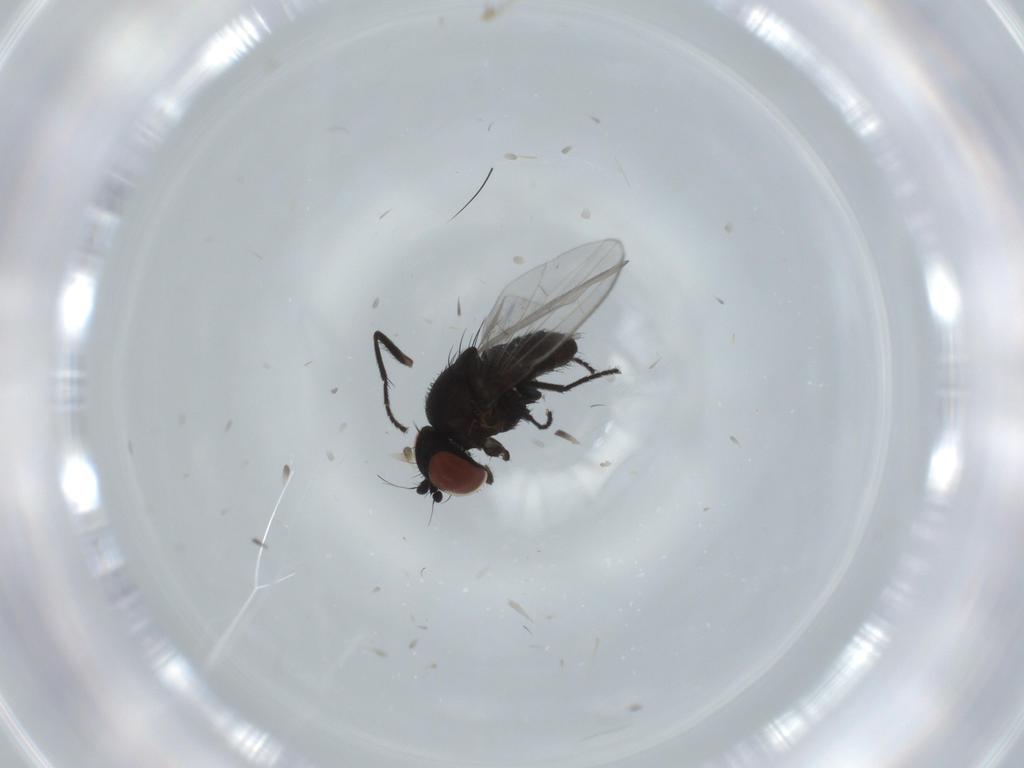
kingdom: Animalia
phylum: Arthropoda
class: Insecta
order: Diptera
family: Milichiidae
